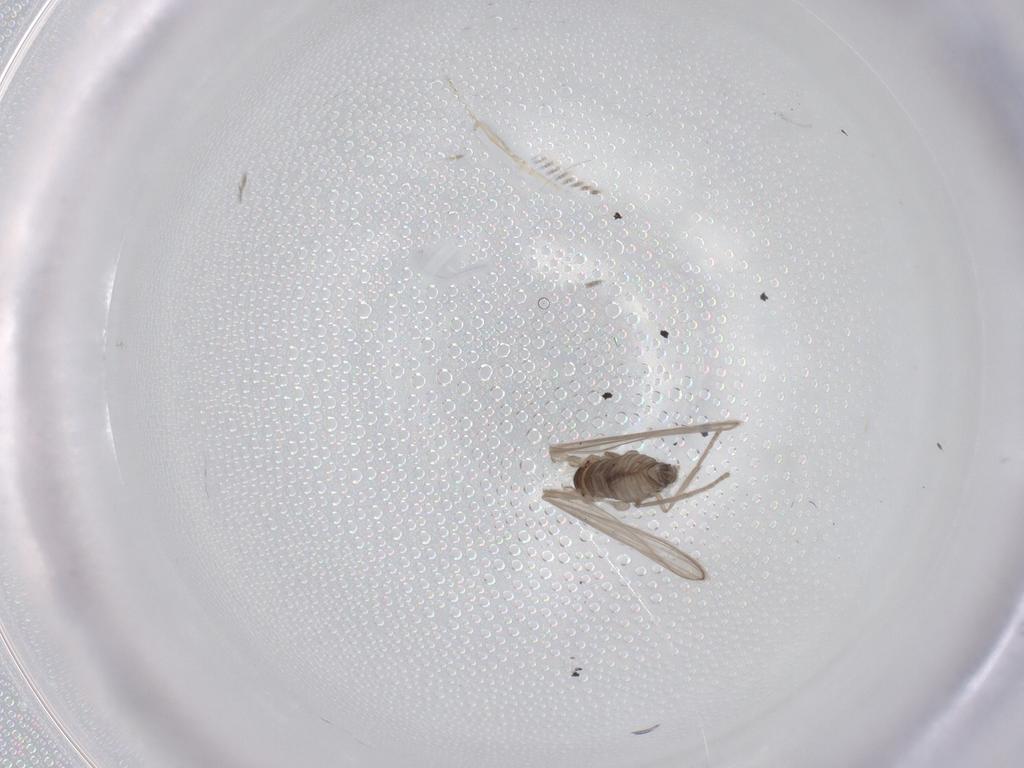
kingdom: Animalia
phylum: Arthropoda
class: Insecta
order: Diptera
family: Psychodidae
